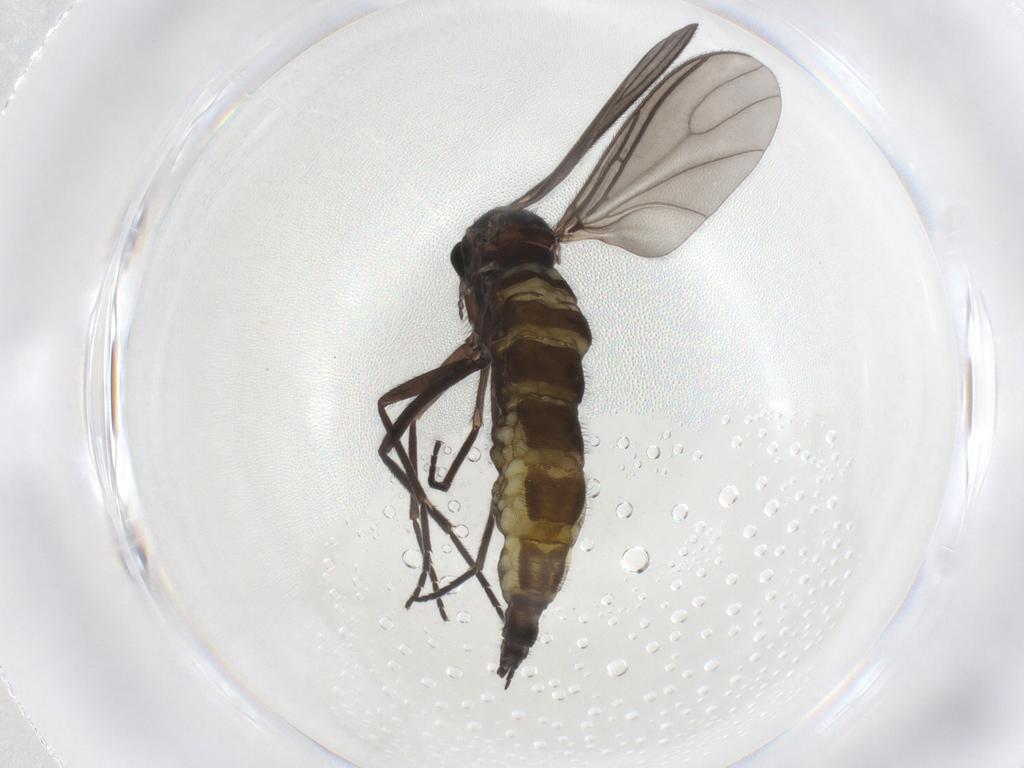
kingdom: Animalia
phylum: Arthropoda
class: Insecta
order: Diptera
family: Sciaridae
